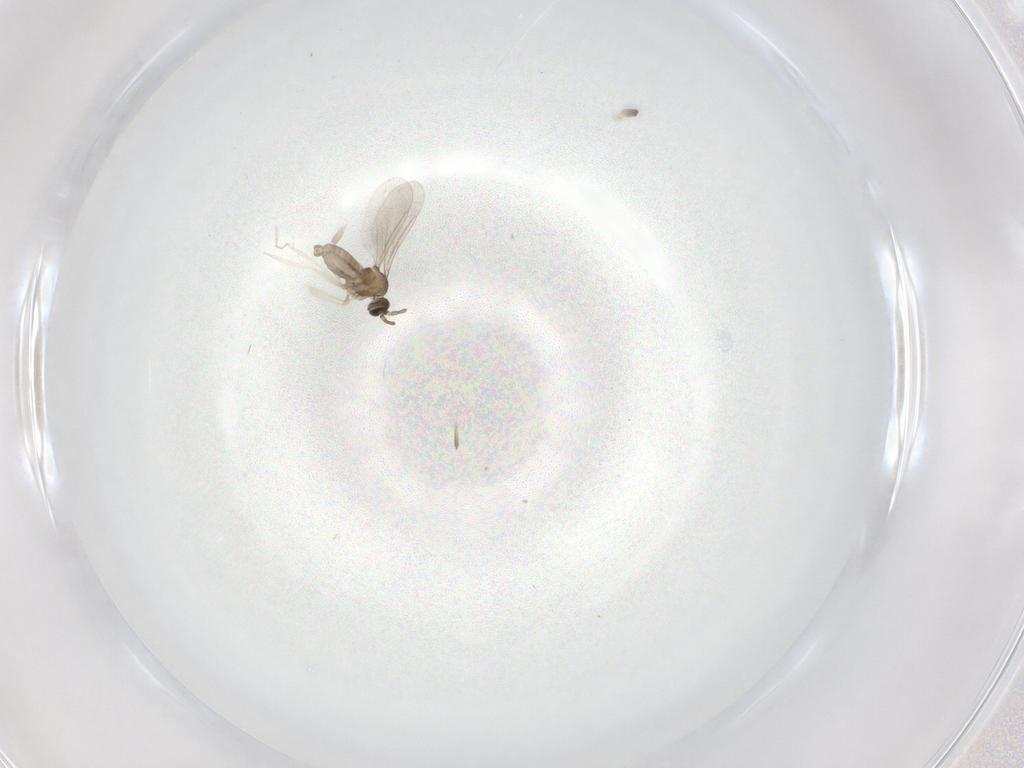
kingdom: Animalia
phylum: Arthropoda
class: Insecta
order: Diptera
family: Cecidomyiidae
